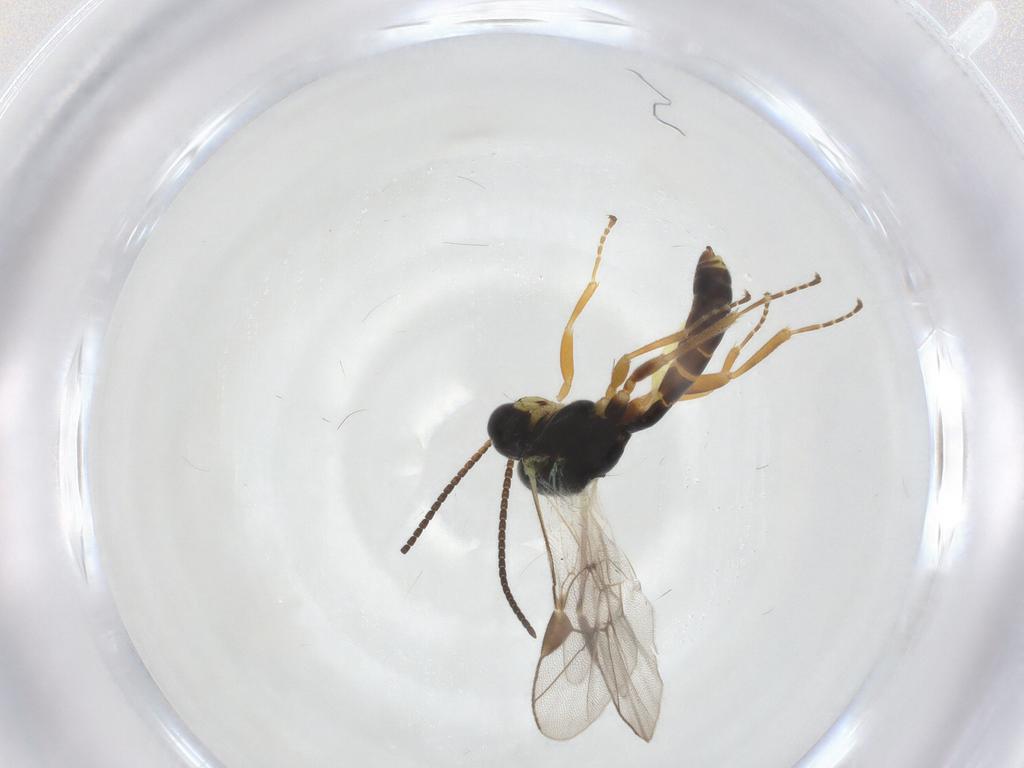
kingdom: Animalia
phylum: Arthropoda
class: Insecta
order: Hymenoptera
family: Ichneumonidae
